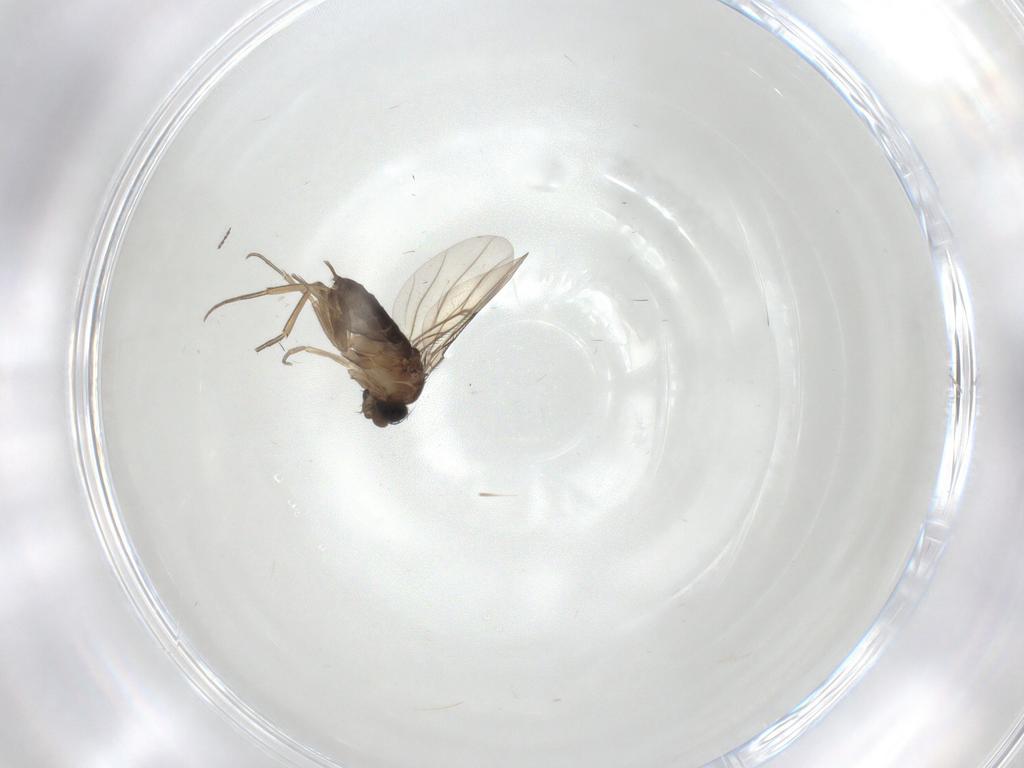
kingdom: Animalia
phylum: Arthropoda
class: Insecta
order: Diptera
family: Cecidomyiidae
